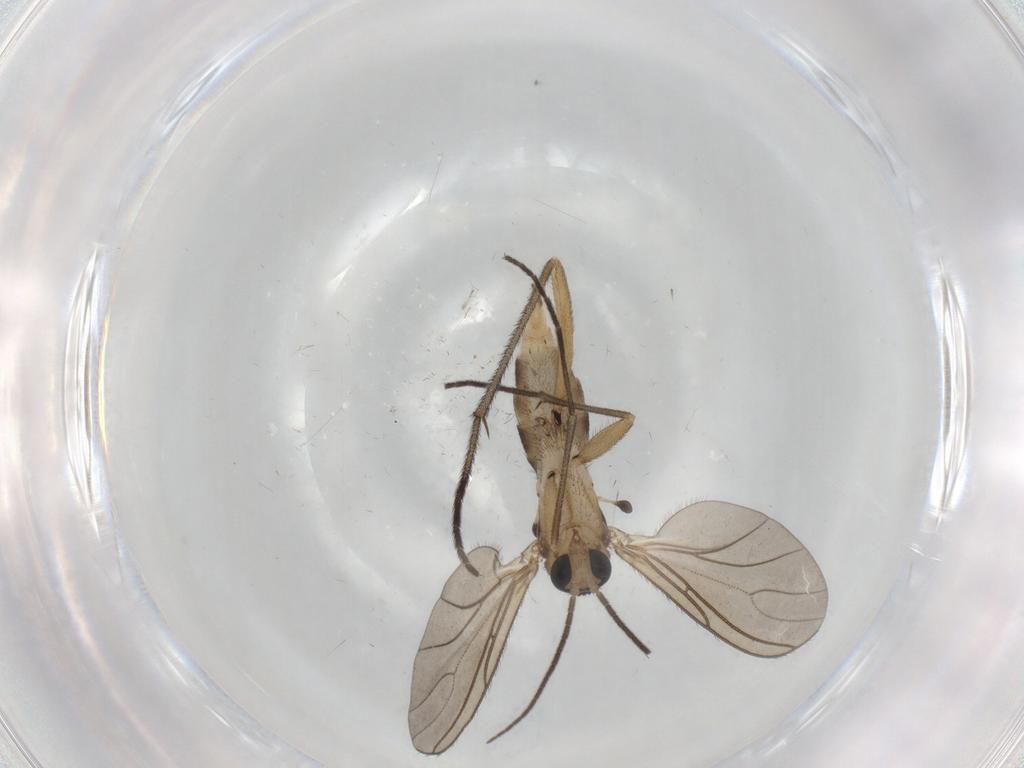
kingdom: Animalia
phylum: Arthropoda
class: Insecta
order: Diptera
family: Sciaridae
